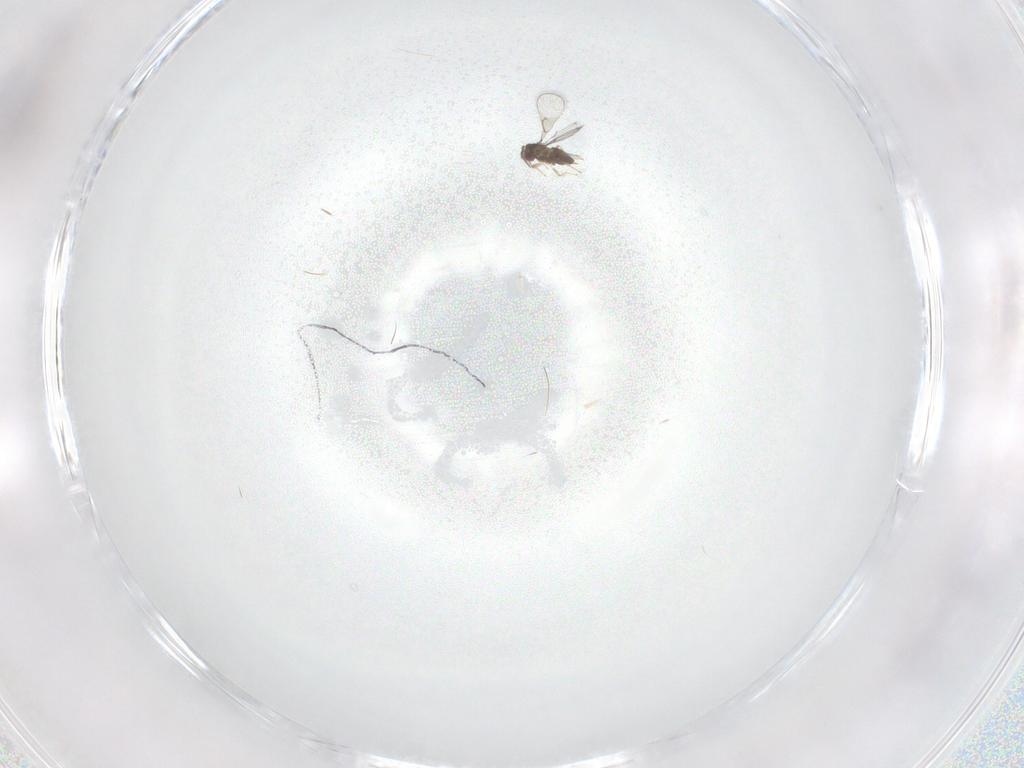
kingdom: Animalia
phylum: Arthropoda
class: Insecta
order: Hymenoptera
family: Trichogrammatidae
